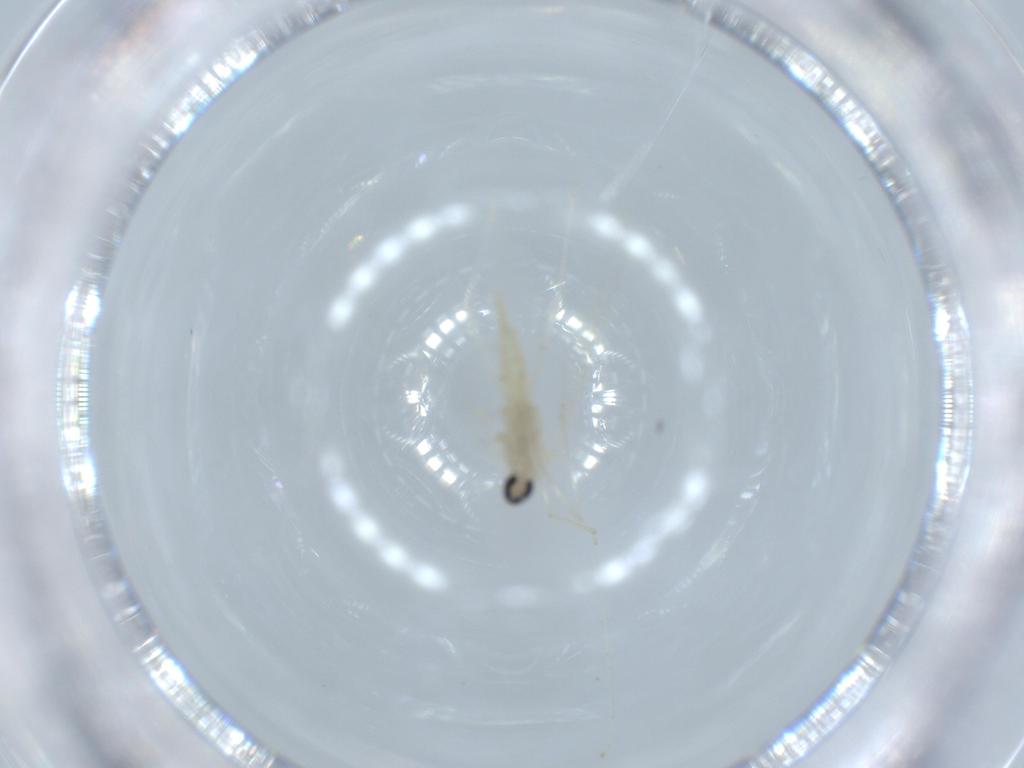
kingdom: Animalia
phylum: Arthropoda
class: Insecta
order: Diptera
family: Cecidomyiidae
